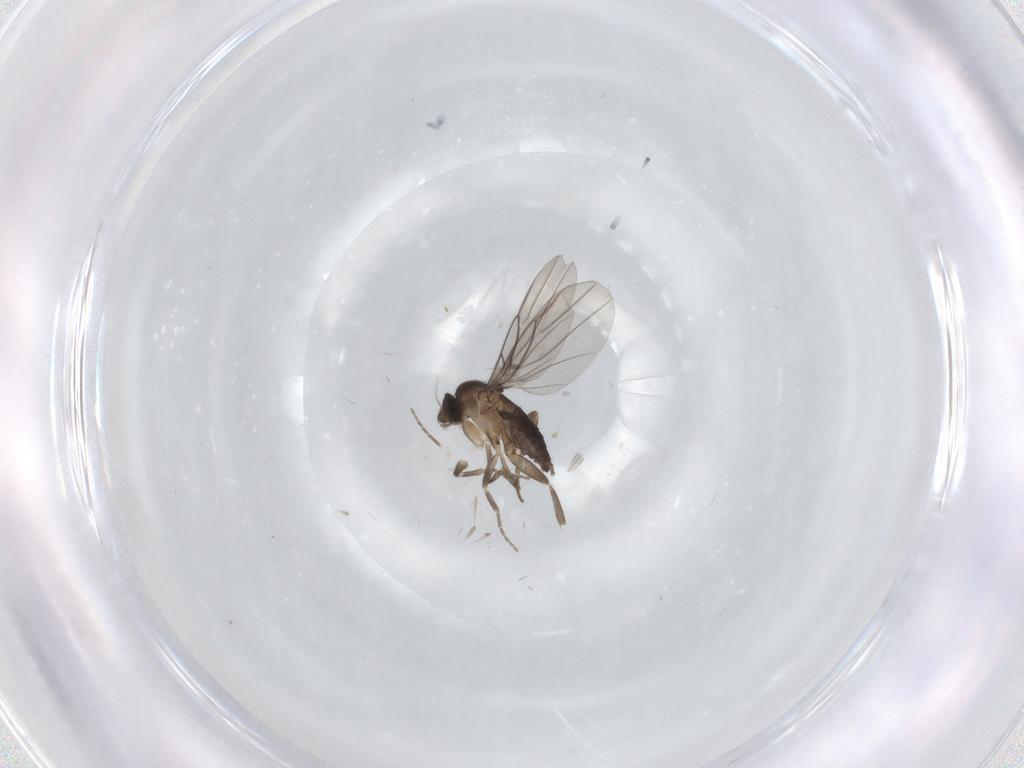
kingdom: Animalia
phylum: Arthropoda
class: Insecta
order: Diptera
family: Phoridae
